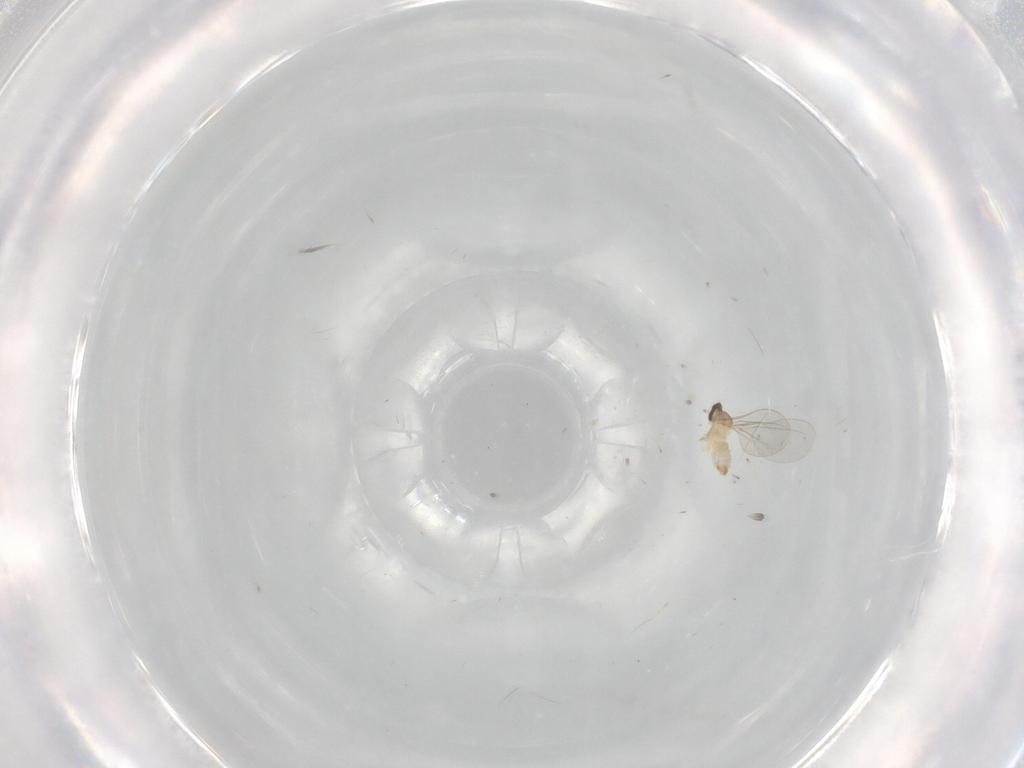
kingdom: Animalia
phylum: Arthropoda
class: Insecta
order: Diptera
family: Cecidomyiidae
